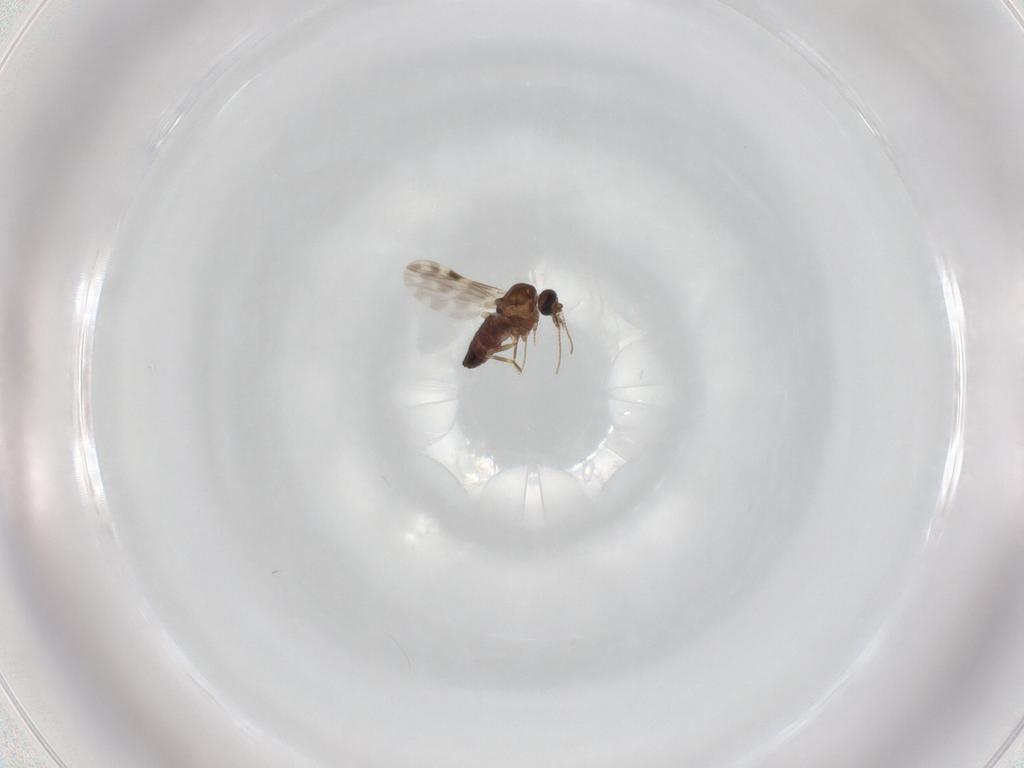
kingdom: Animalia
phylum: Arthropoda
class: Insecta
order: Diptera
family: Ceratopogonidae
